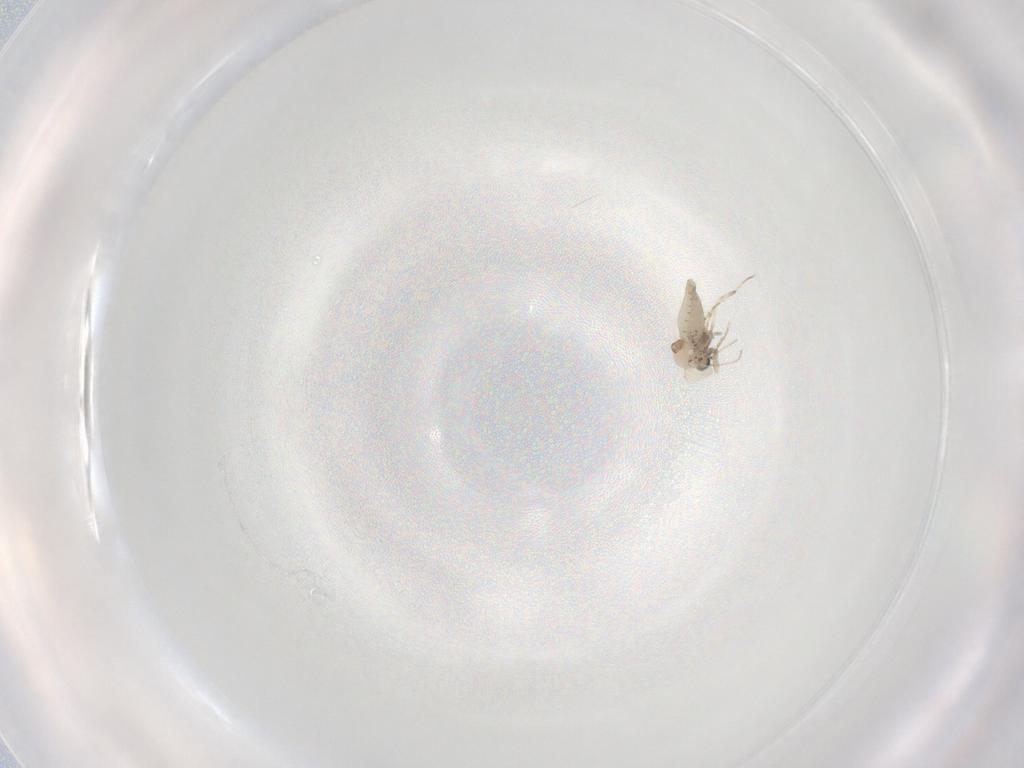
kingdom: Animalia
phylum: Arthropoda
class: Insecta
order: Diptera
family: Ceratopogonidae
